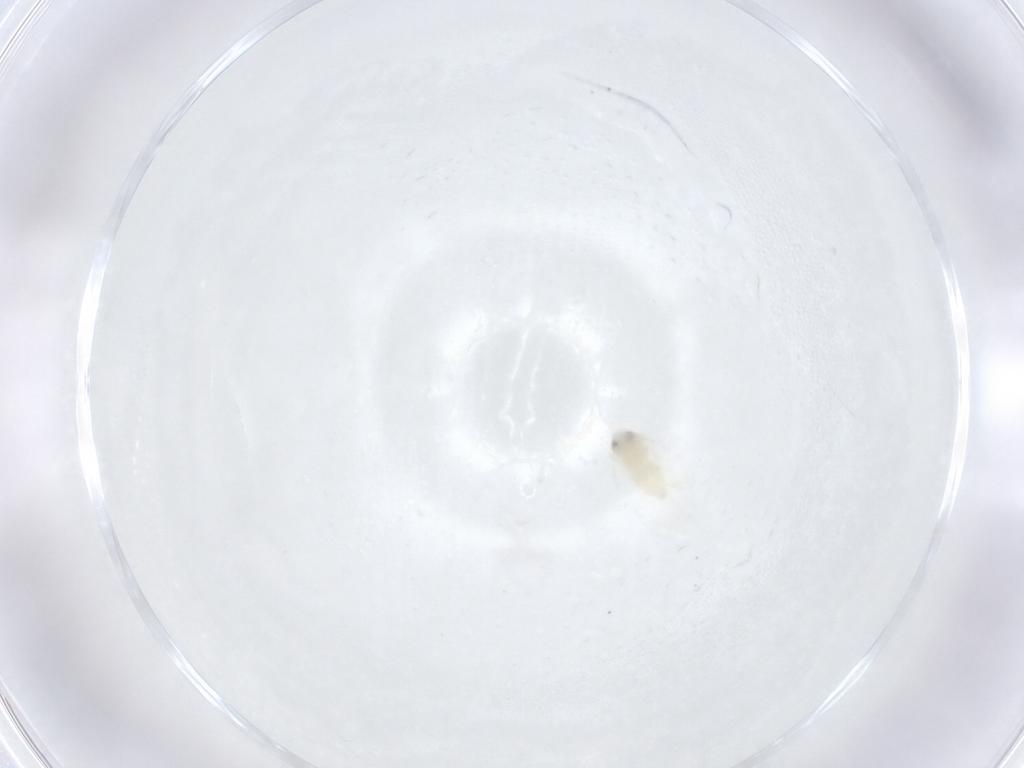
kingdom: Animalia
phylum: Arthropoda
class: Insecta
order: Hemiptera
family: Aleyrodidae
